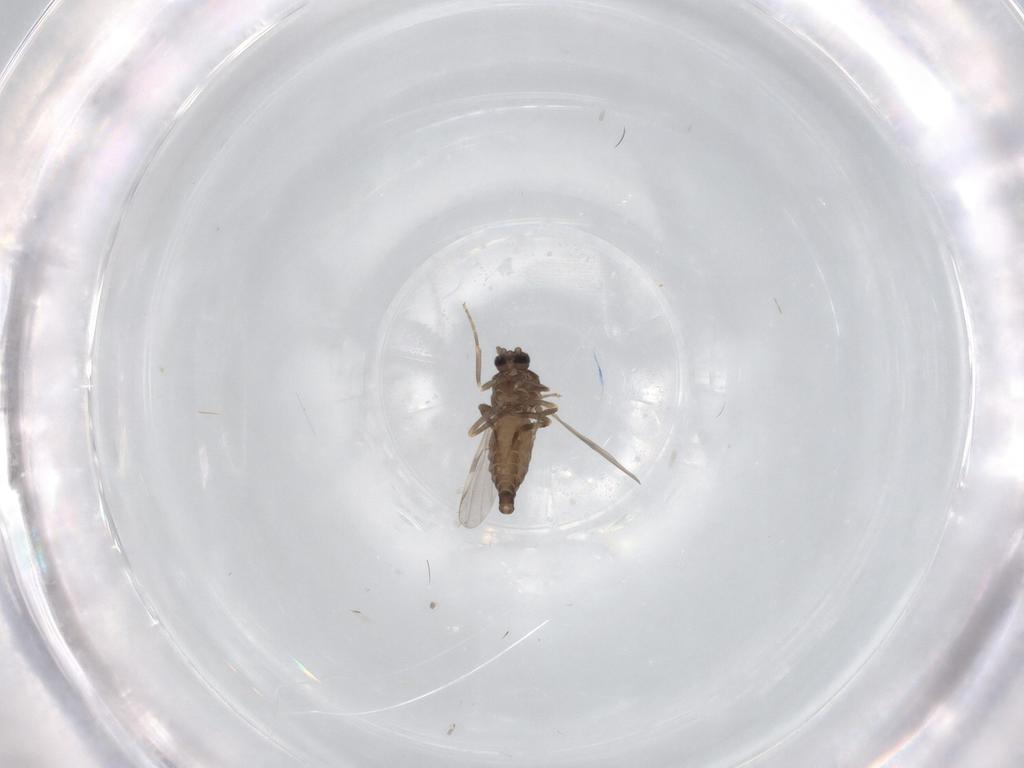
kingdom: Animalia
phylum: Arthropoda
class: Insecta
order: Diptera
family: Ceratopogonidae
